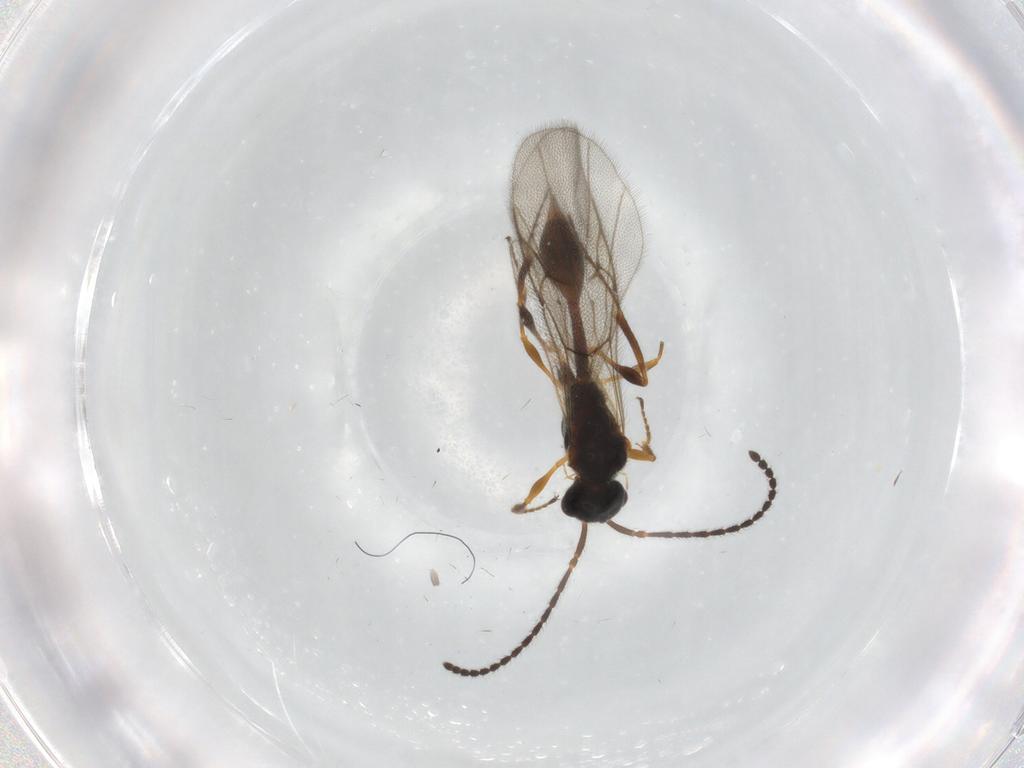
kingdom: Animalia
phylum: Arthropoda
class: Insecta
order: Hymenoptera
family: Diapriidae
